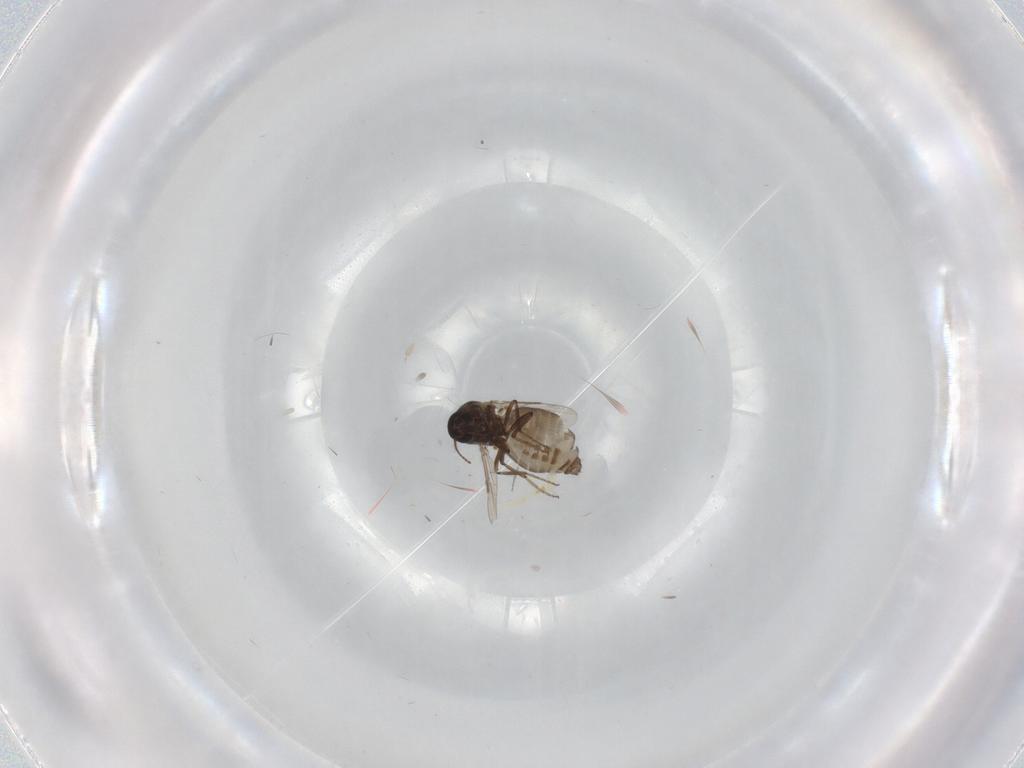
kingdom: Animalia
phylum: Arthropoda
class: Insecta
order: Diptera
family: Ceratopogonidae
